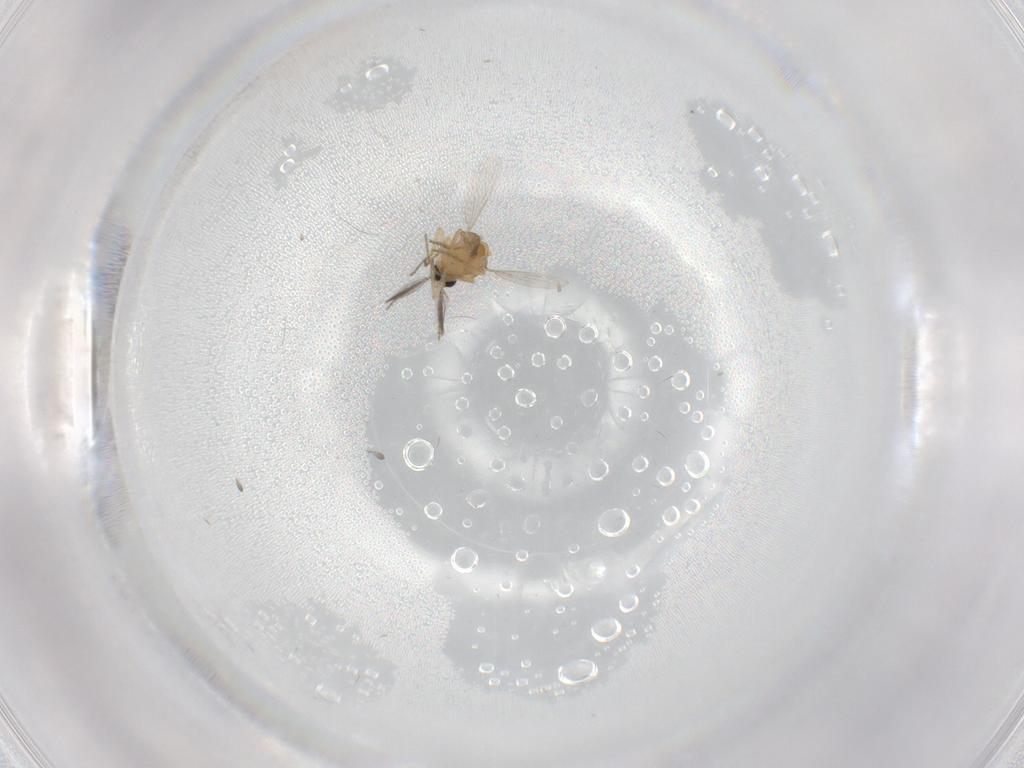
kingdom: Animalia
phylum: Arthropoda
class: Insecta
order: Diptera
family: Ceratopogonidae
